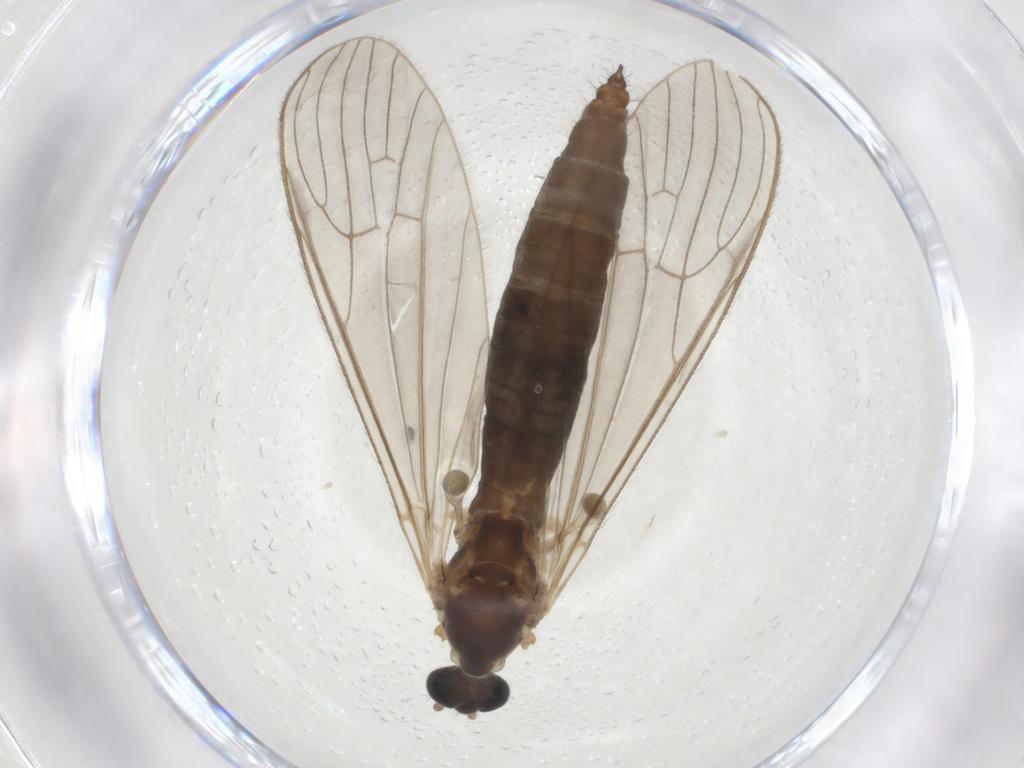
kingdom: Animalia
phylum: Arthropoda
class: Insecta
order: Diptera
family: Limoniidae
